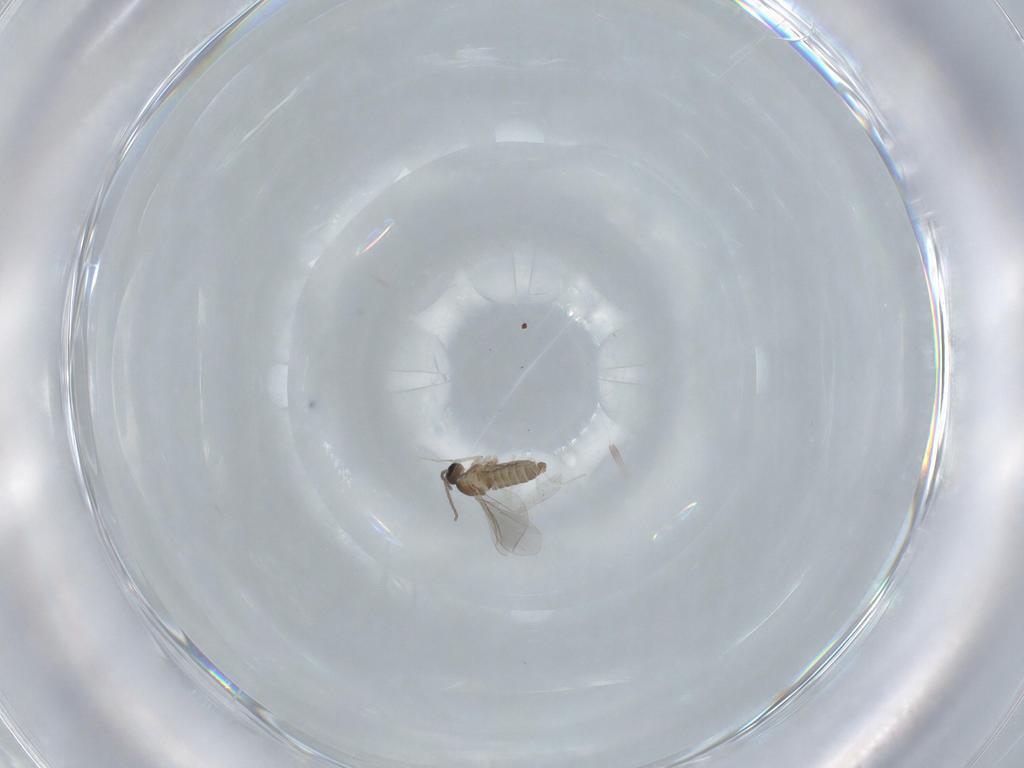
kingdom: Animalia
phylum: Arthropoda
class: Insecta
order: Diptera
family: Cecidomyiidae
